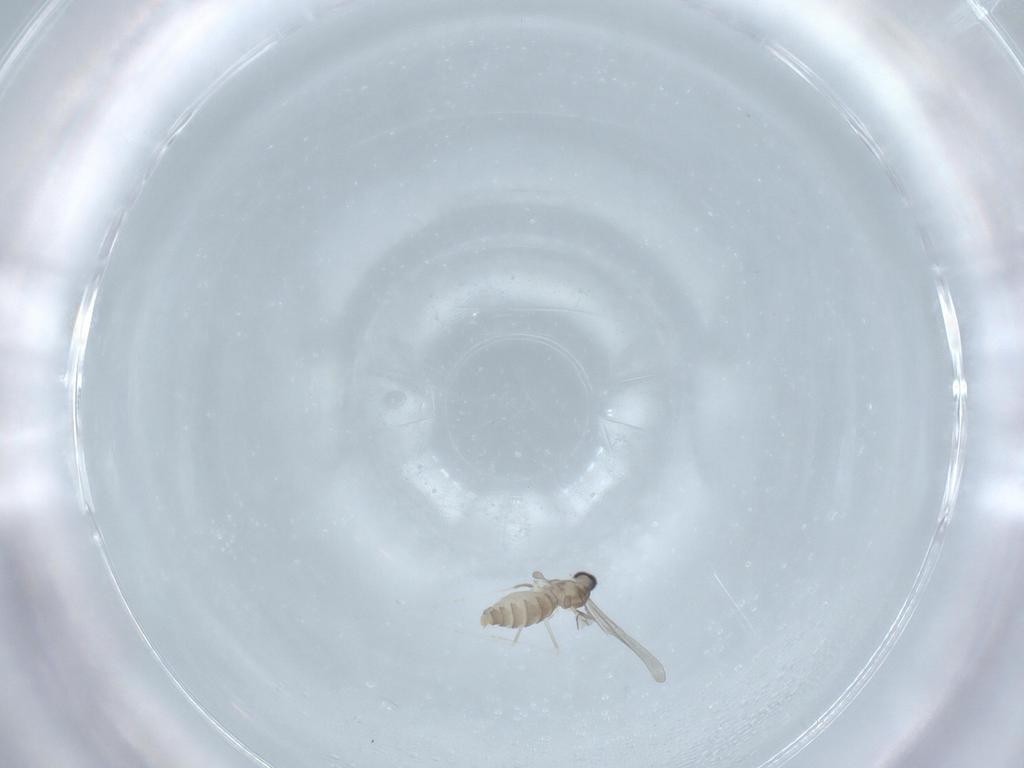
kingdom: Animalia
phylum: Arthropoda
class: Insecta
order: Diptera
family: Cecidomyiidae
